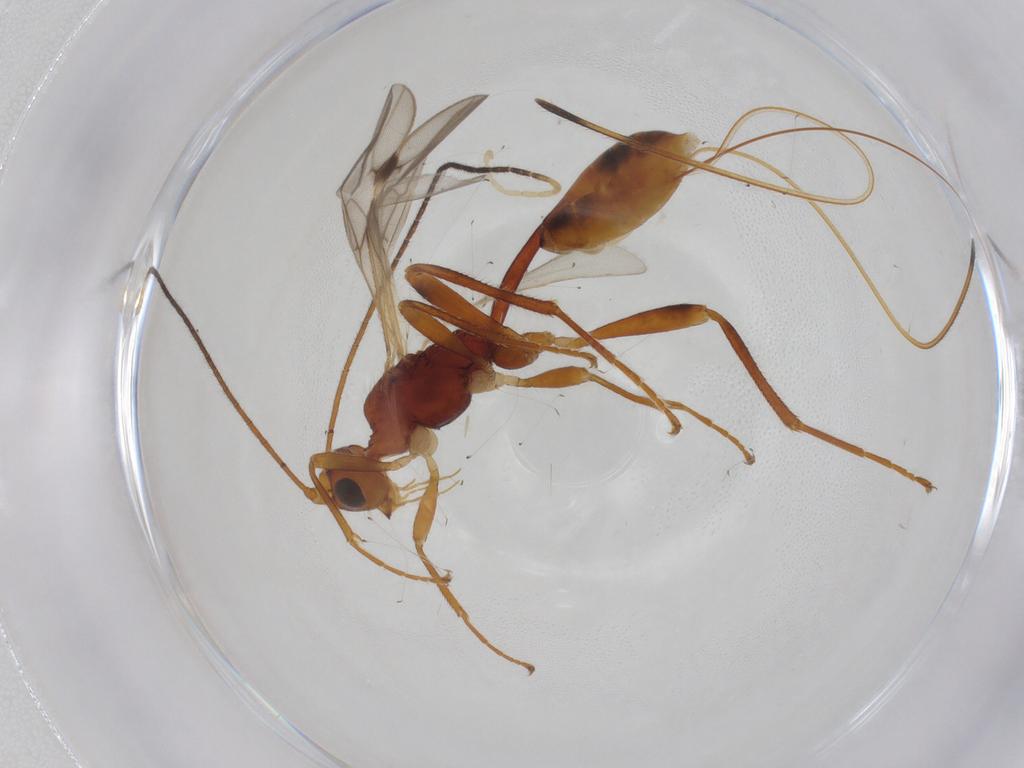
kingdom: Animalia
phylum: Arthropoda
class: Insecta
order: Hymenoptera
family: Braconidae
